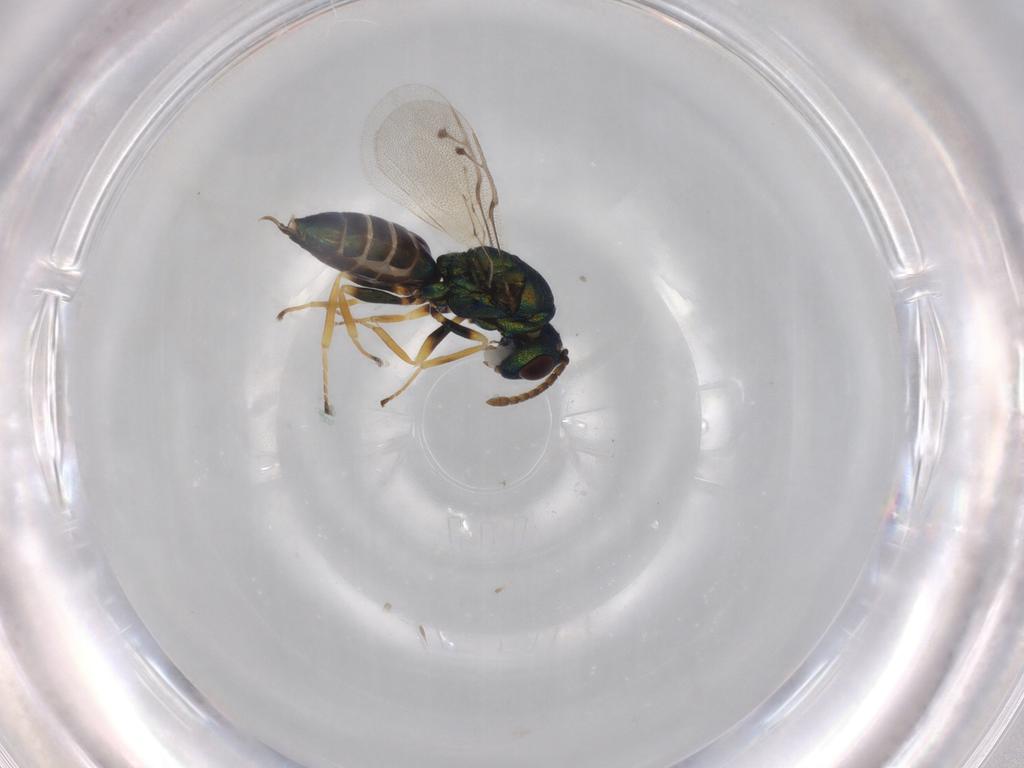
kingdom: Animalia
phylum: Arthropoda
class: Insecta
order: Hymenoptera
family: Pteromalidae
